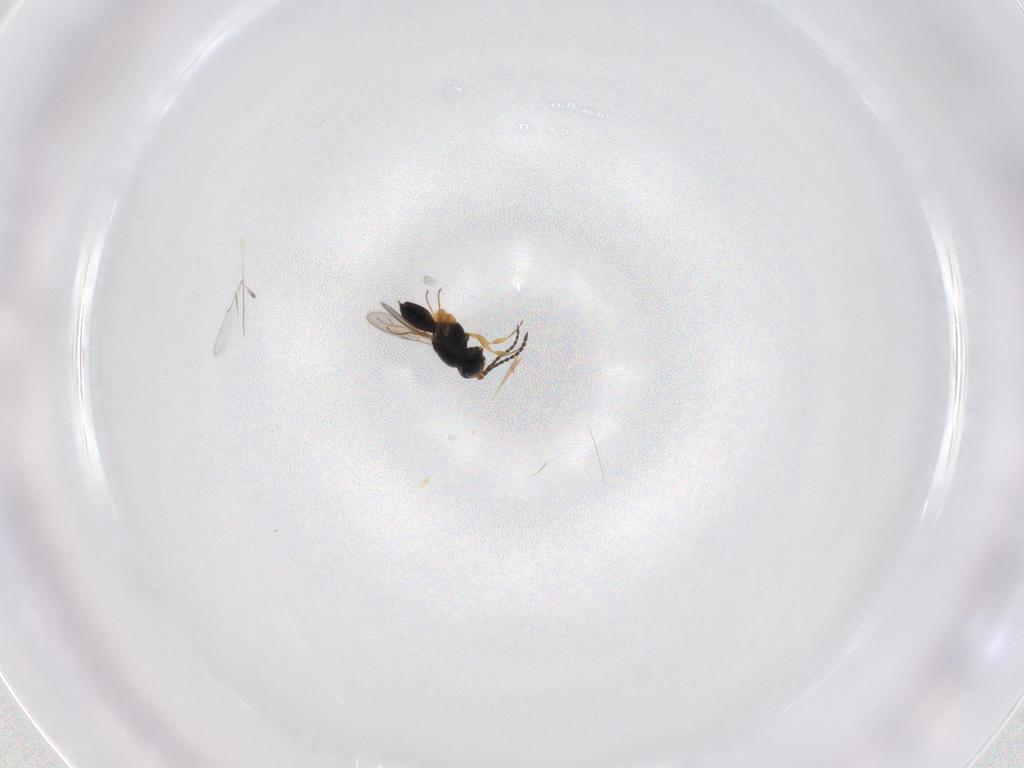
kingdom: Animalia
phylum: Arthropoda
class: Insecta
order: Hymenoptera
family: Scelionidae
